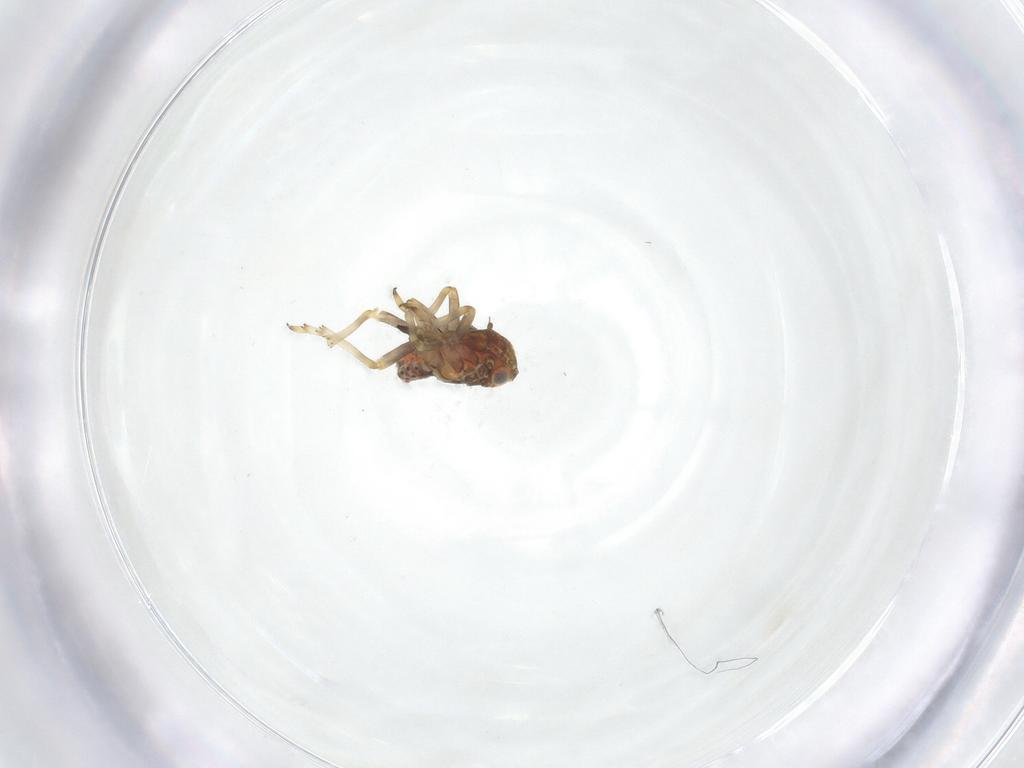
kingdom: Animalia
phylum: Arthropoda
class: Insecta
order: Hemiptera
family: Tropiduchidae
